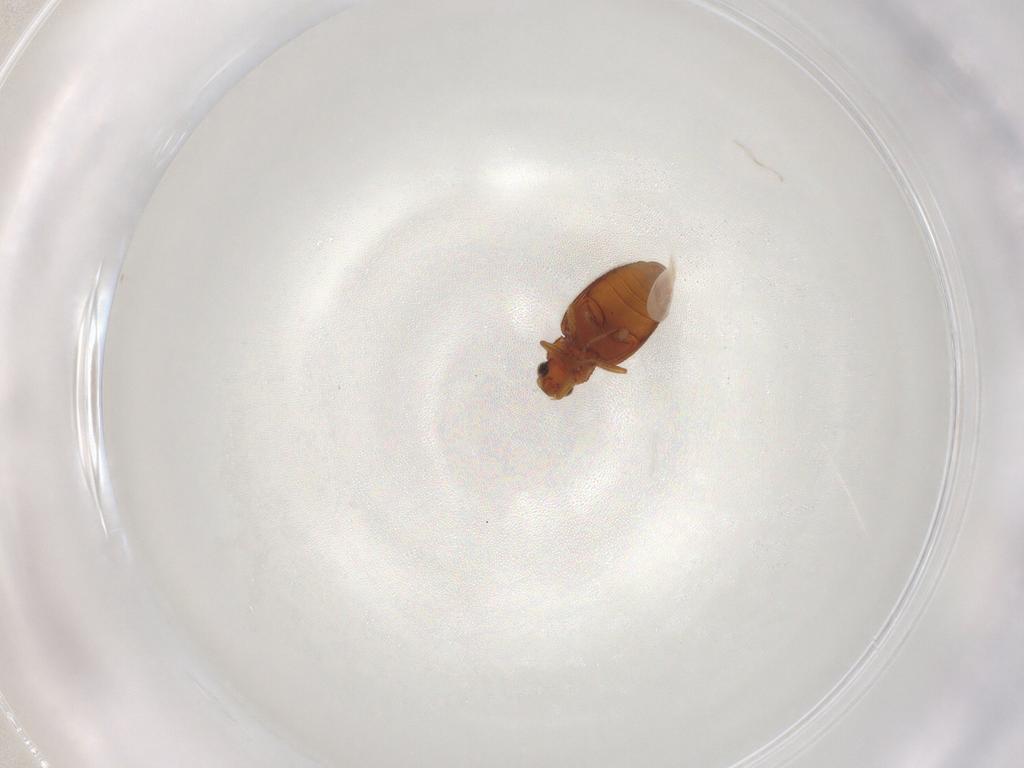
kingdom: Animalia
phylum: Arthropoda
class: Insecta
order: Coleoptera
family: Latridiidae
